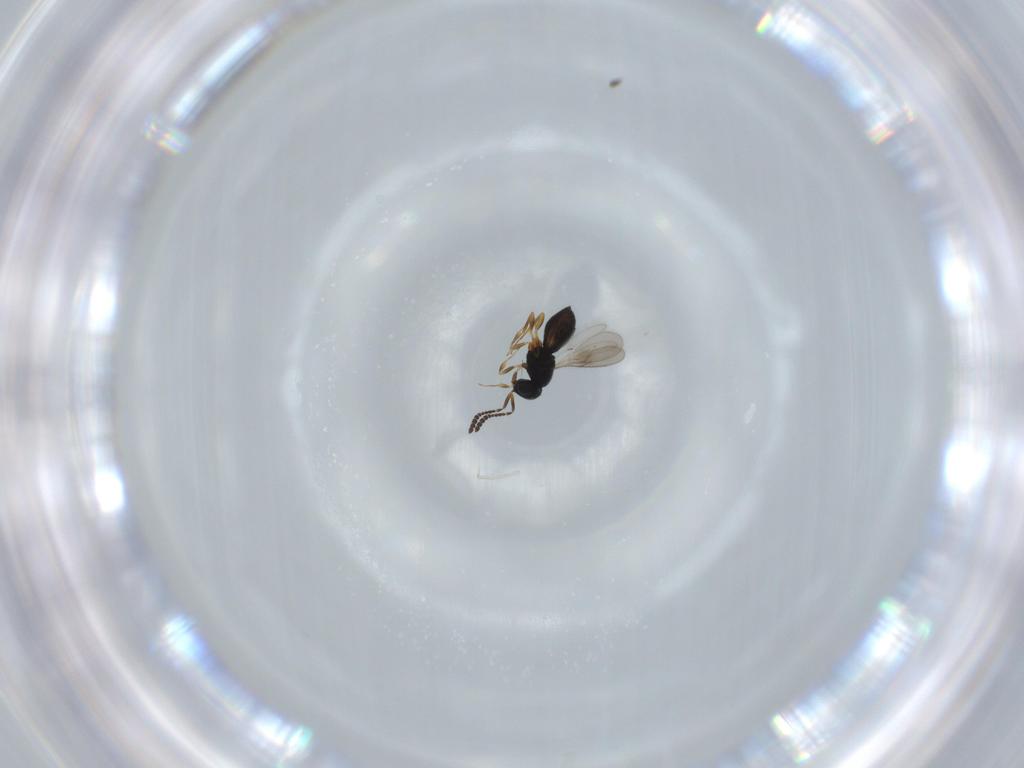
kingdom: Animalia
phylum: Arthropoda
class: Insecta
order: Hymenoptera
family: Scelionidae
